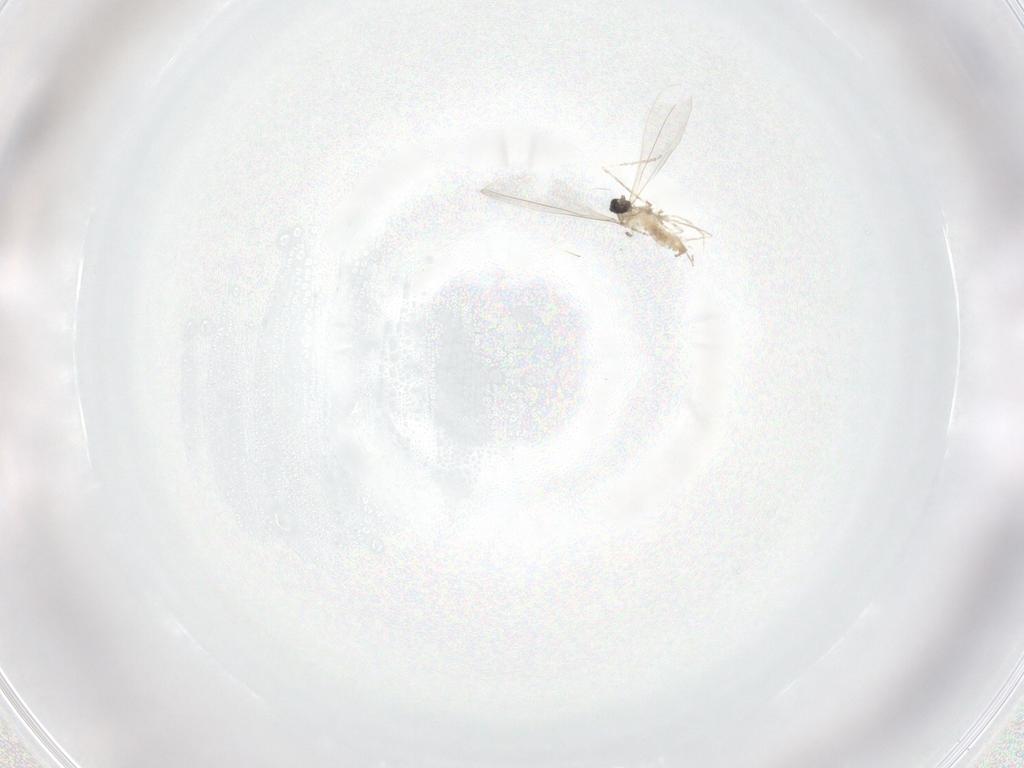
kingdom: Animalia
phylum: Arthropoda
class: Insecta
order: Diptera
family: Cecidomyiidae
